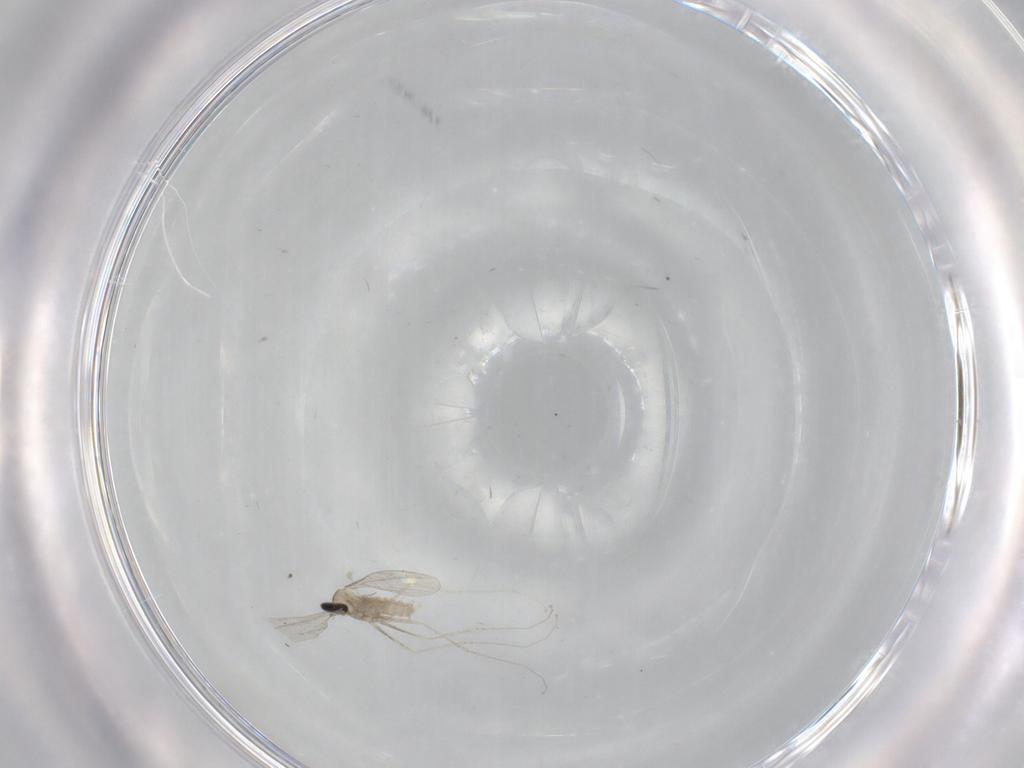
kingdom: Animalia
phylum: Arthropoda
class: Insecta
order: Diptera
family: Cecidomyiidae
